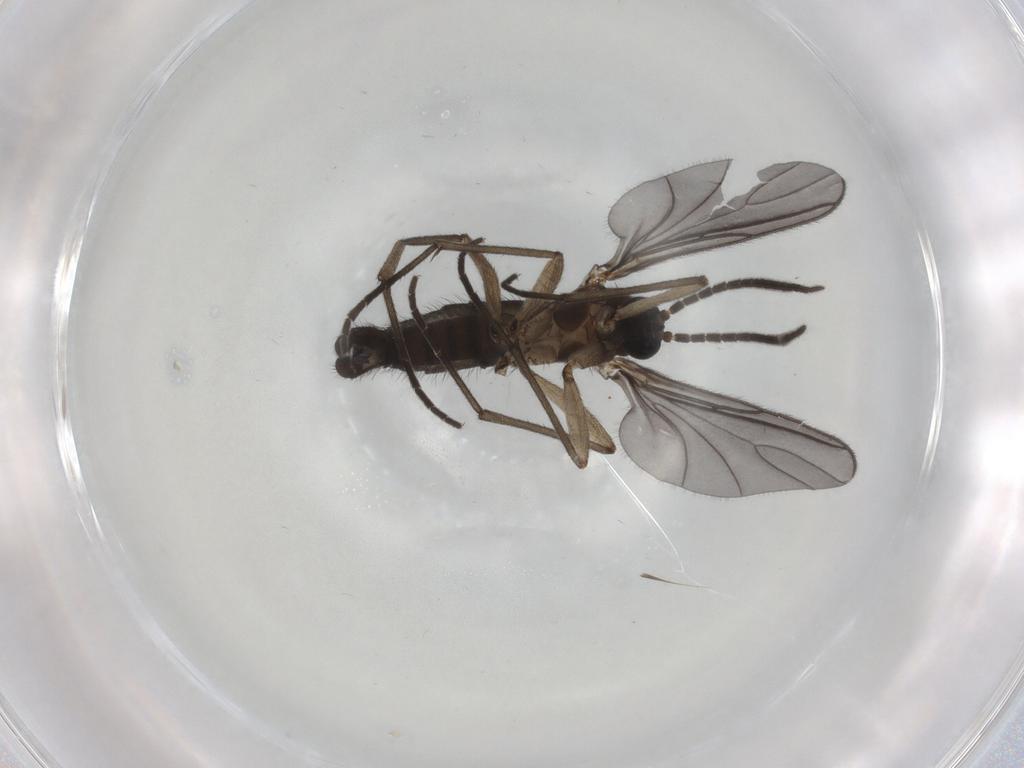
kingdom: Animalia
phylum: Arthropoda
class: Insecta
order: Diptera
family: Sciaridae
